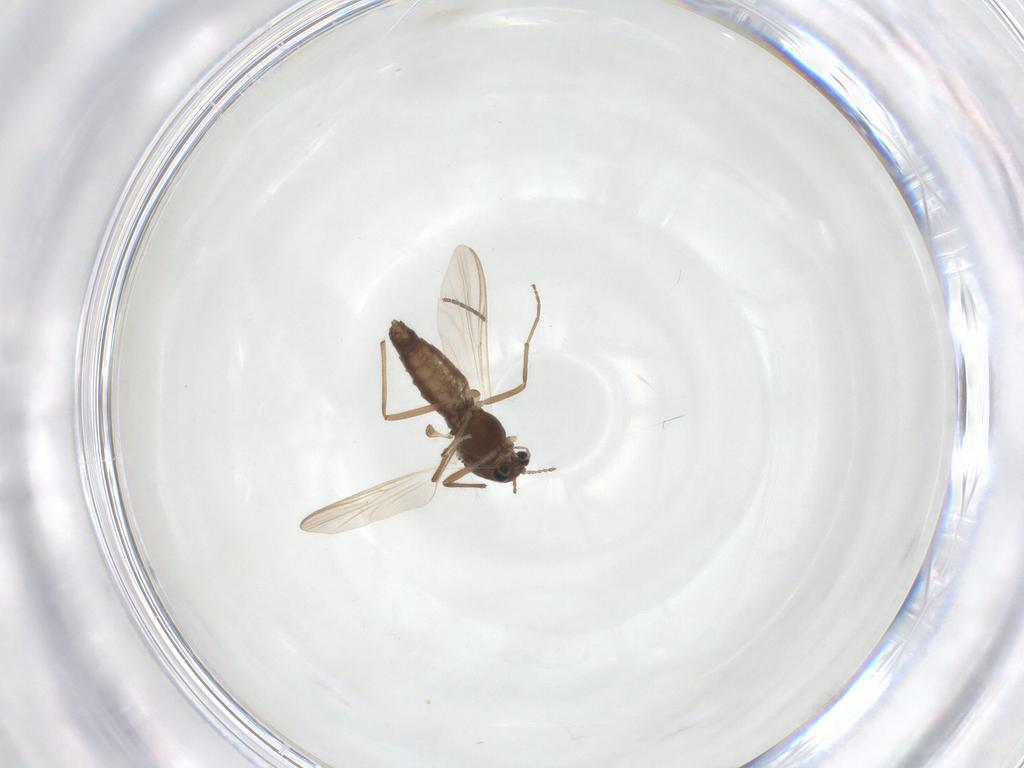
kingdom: Animalia
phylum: Arthropoda
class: Insecta
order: Diptera
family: Chironomidae
